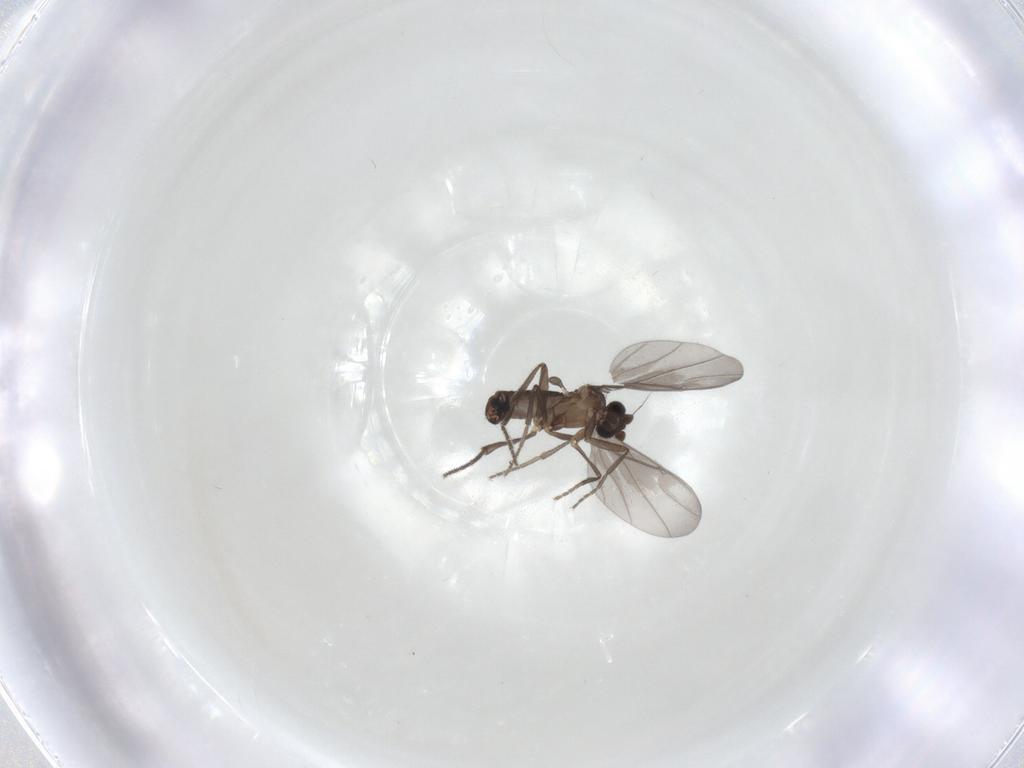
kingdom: Animalia
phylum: Arthropoda
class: Insecta
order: Diptera
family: Phoridae
